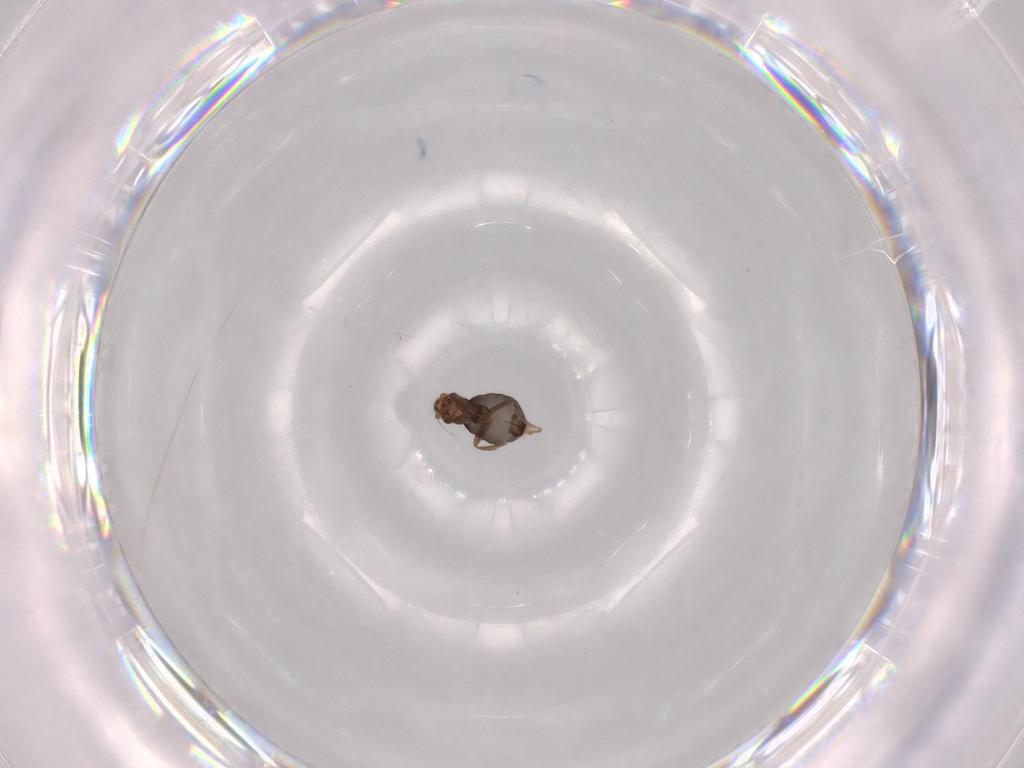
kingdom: Animalia
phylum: Arthropoda
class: Insecta
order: Diptera
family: Phoridae
